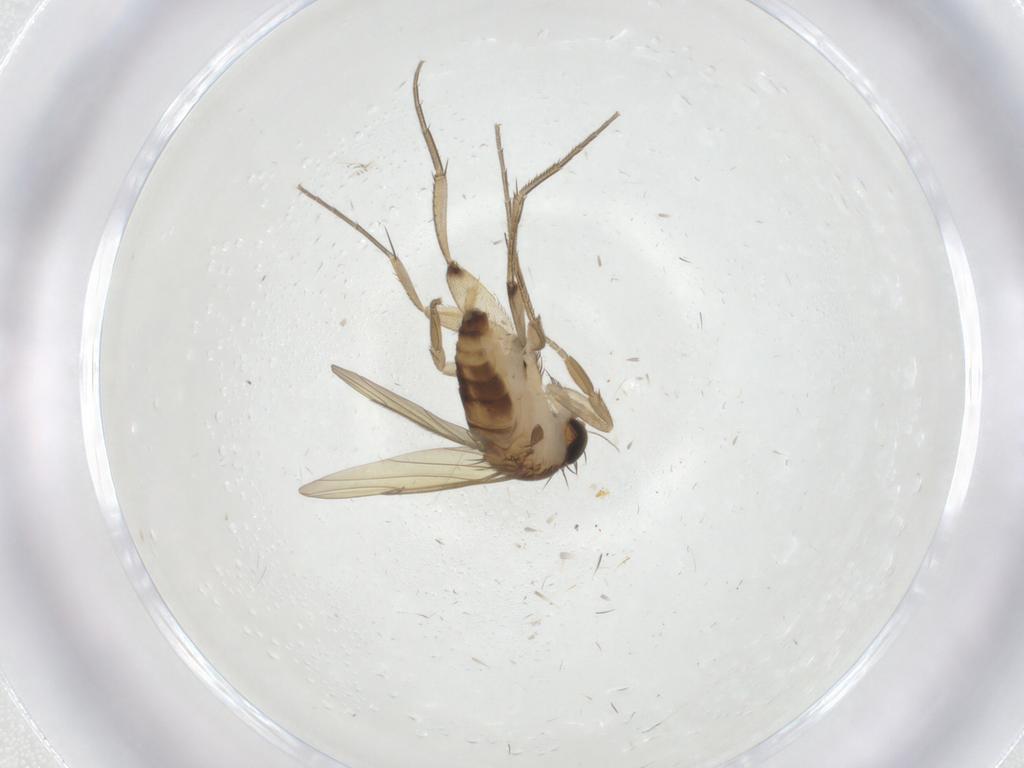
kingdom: Animalia
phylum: Arthropoda
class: Insecta
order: Diptera
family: Phoridae
